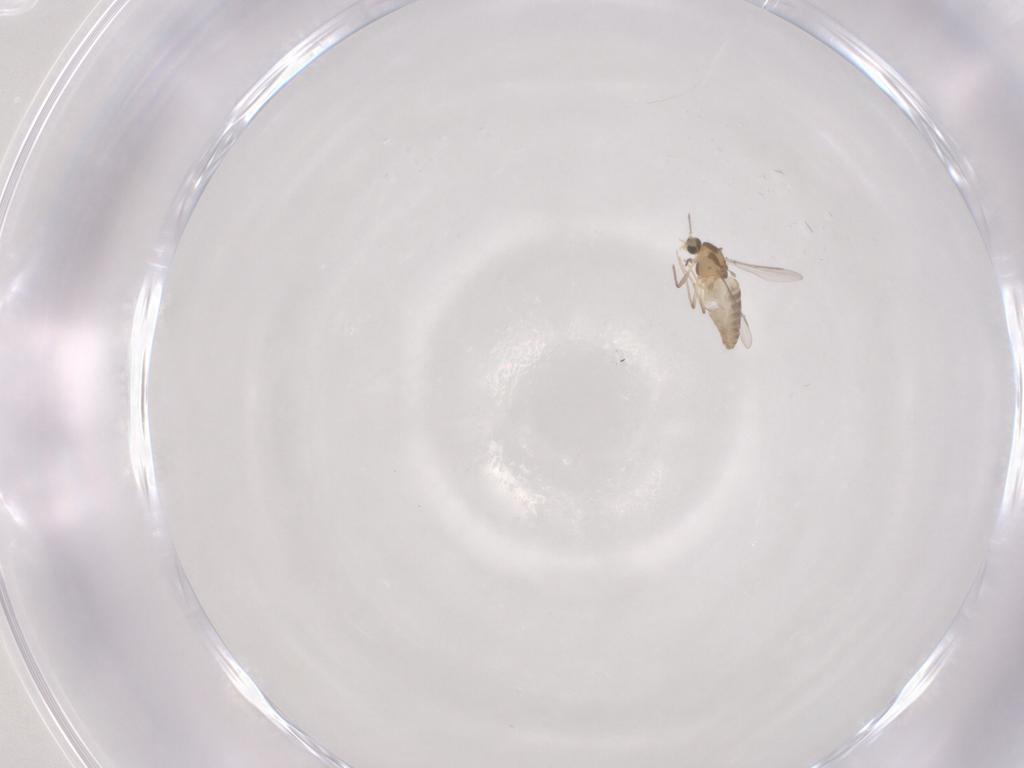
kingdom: Animalia
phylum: Arthropoda
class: Insecta
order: Diptera
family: Chironomidae
